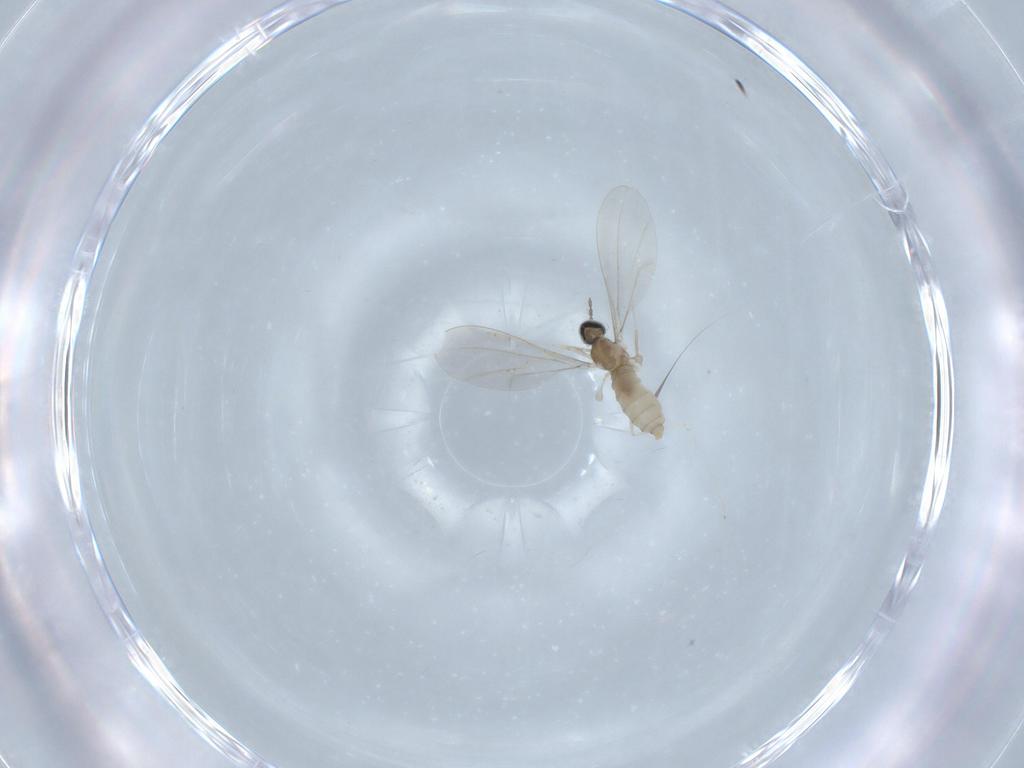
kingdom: Animalia
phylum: Arthropoda
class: Insecta
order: Diptera
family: Cecidomyiidae
